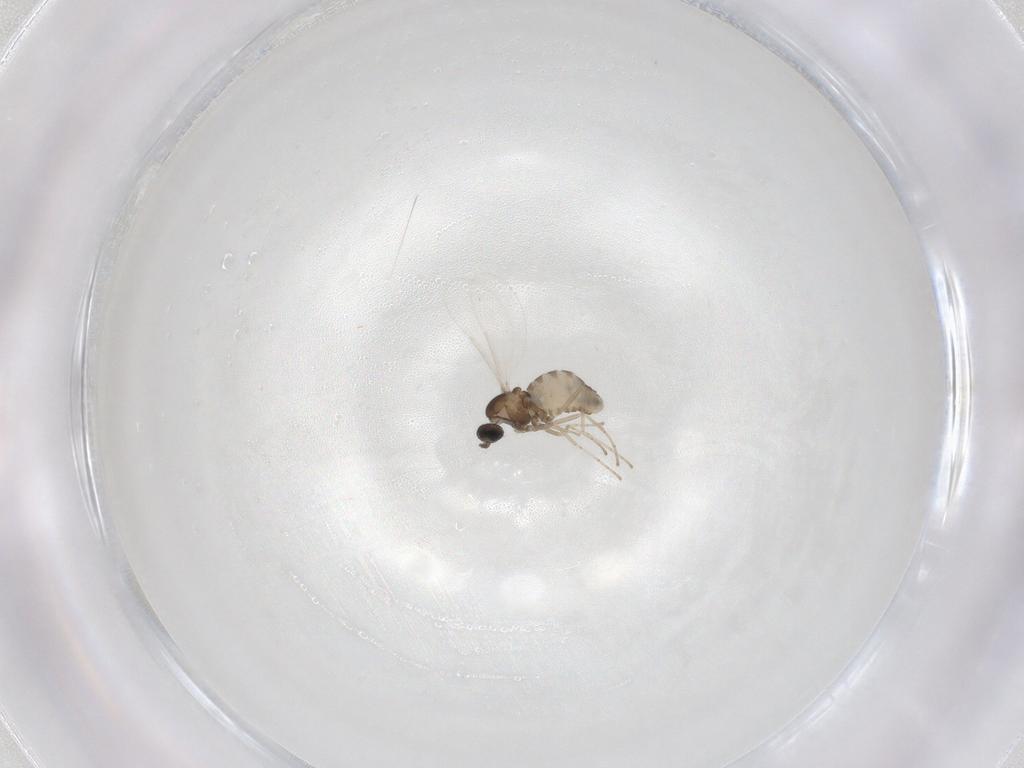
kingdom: Animalia
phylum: Arthropoda
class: Insecta
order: Diptera
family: Cecidomyiidae
